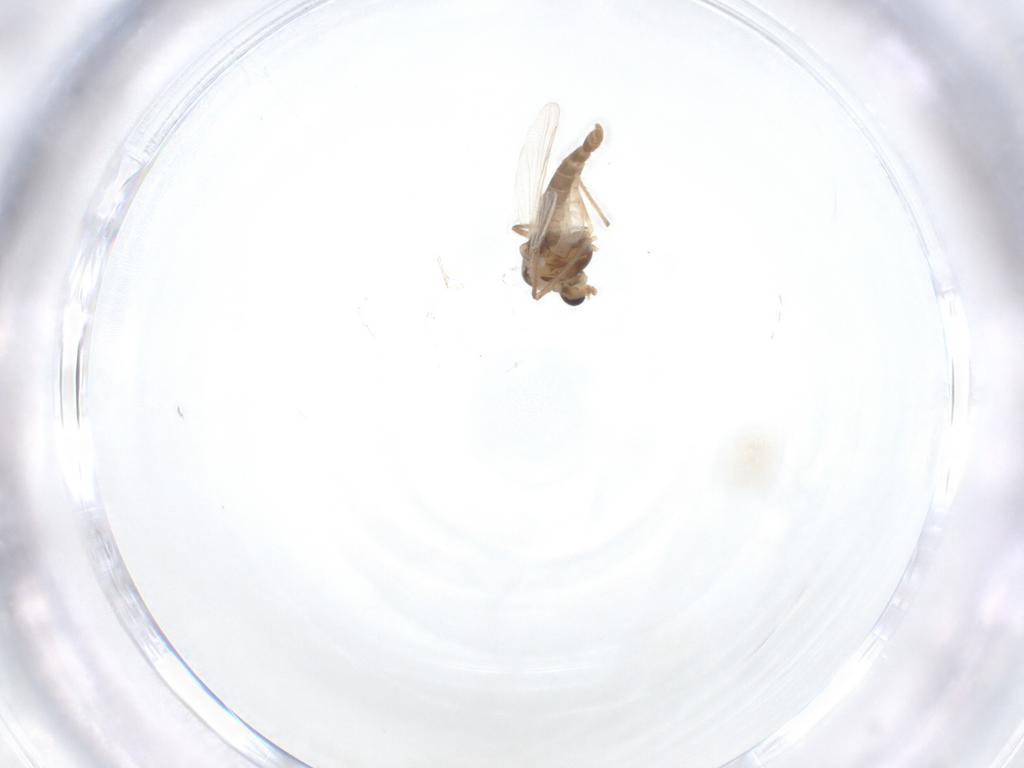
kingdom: Animalia
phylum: Arthropoda
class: Insecta
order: Diptera
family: Chironomidae
